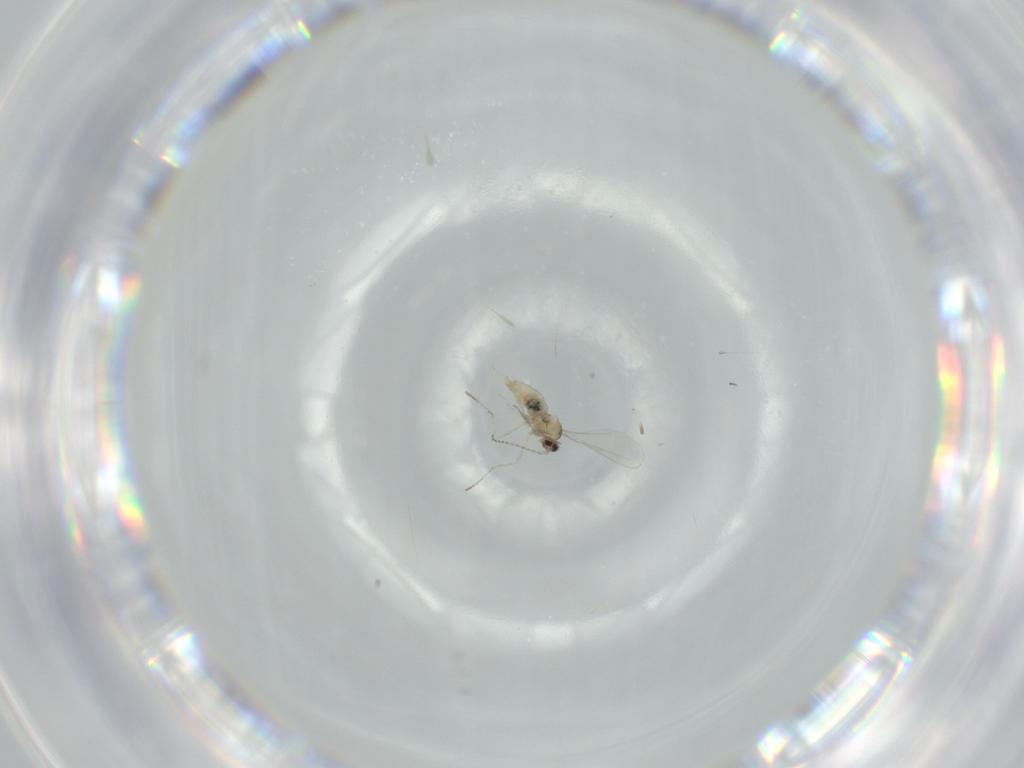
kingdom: Animalia
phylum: Arthropoda
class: Insecta
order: Diptera
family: Cecidomyiidae
